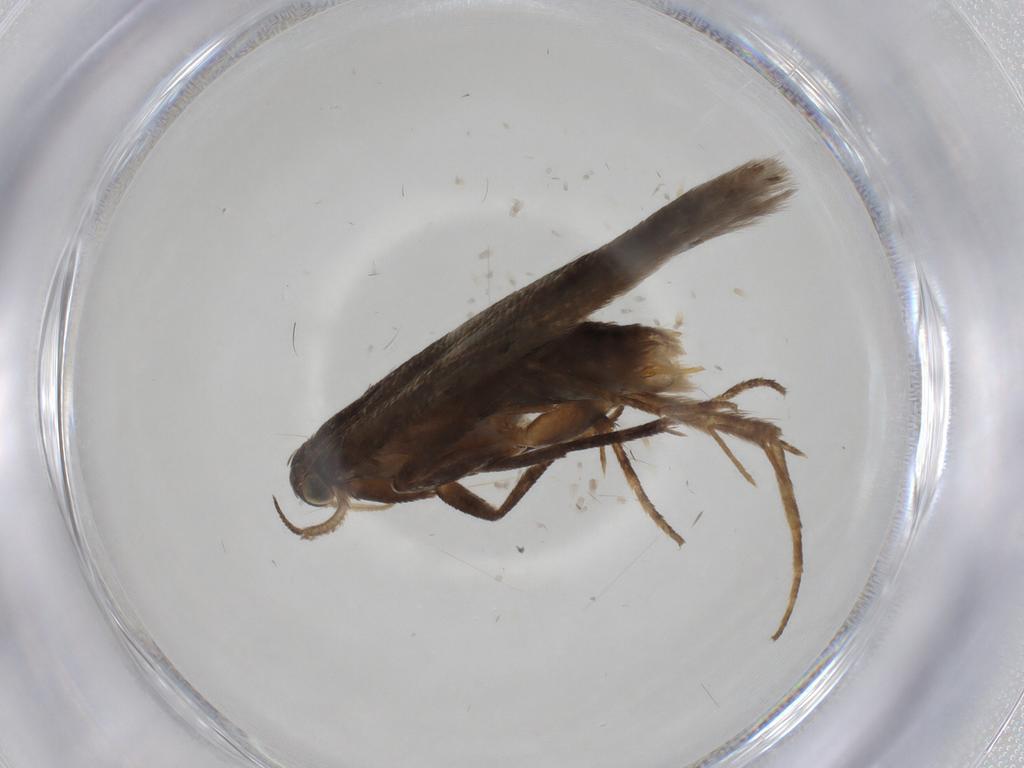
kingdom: Animalia
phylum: Arthropoda
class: Insecta
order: Lepidoptera
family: Gelechiidae
